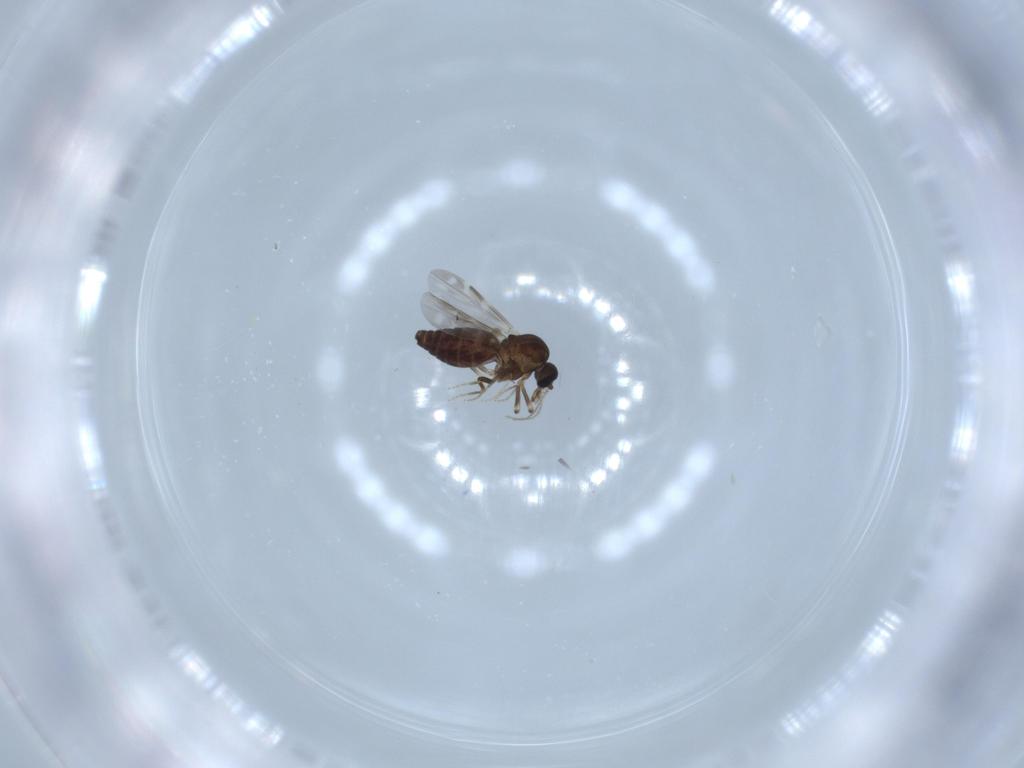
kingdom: Animalia
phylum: Arthropoda
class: Insecta
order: Diptera
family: Ceratopogonidae
